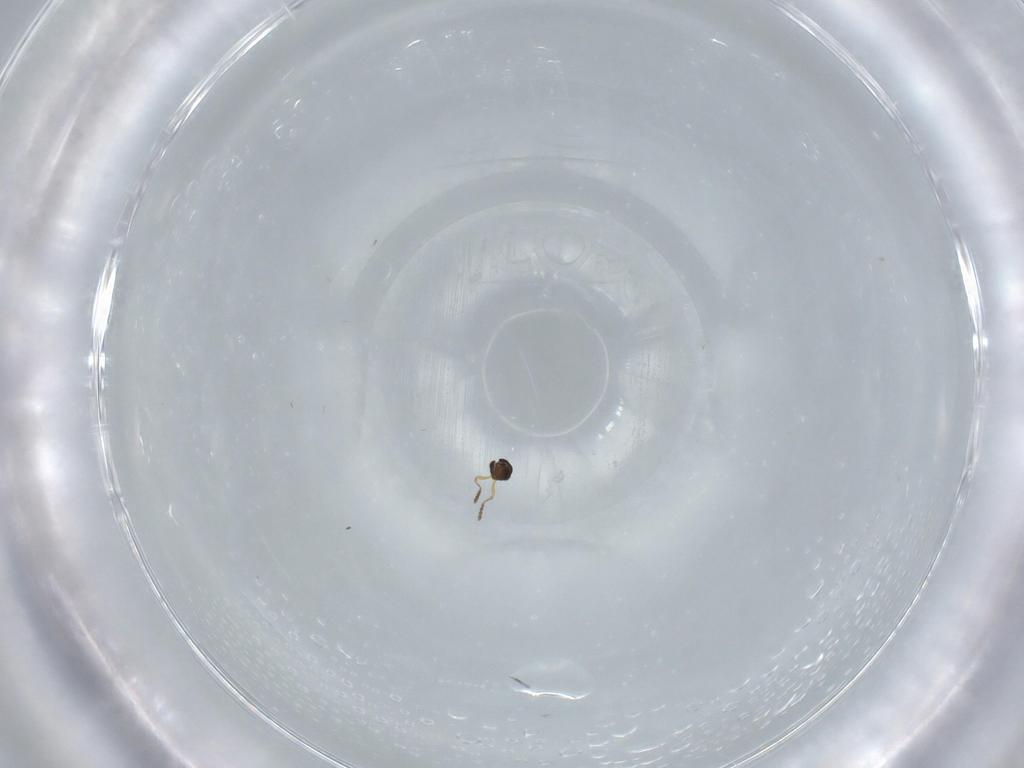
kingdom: Animalia
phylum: Arthropoda
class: Insecta
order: Hymenoptera
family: Platygastridae
